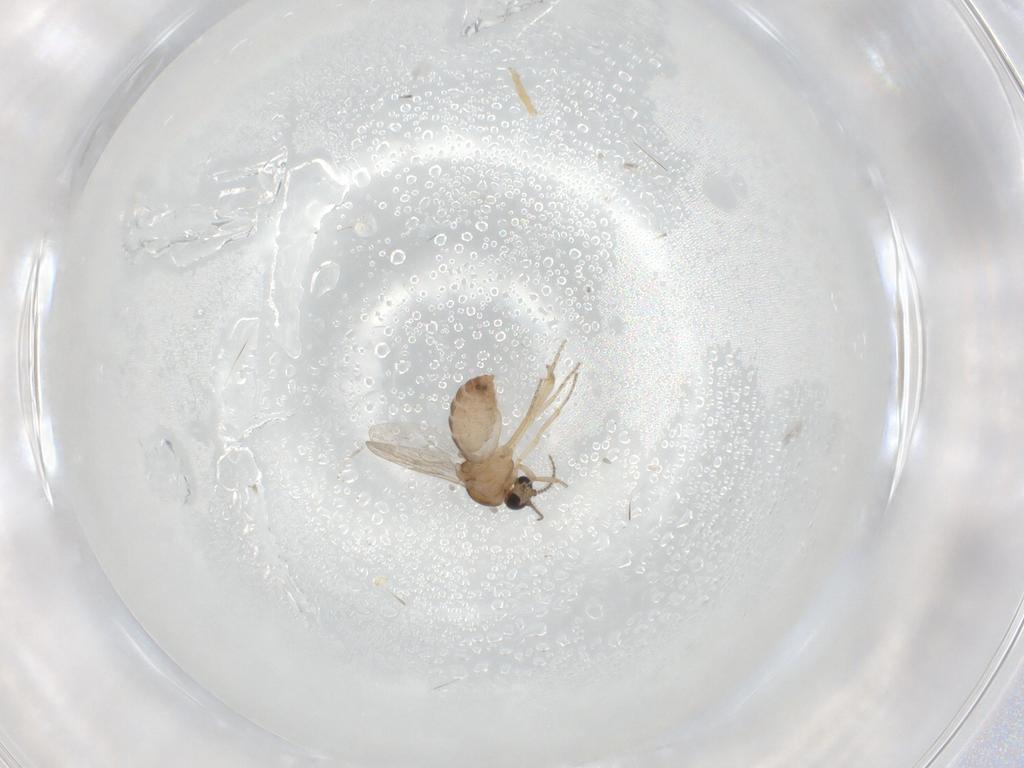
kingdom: Animalia
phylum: Arthropoda
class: Insecta
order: Diptera
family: Ceratopogonidae
